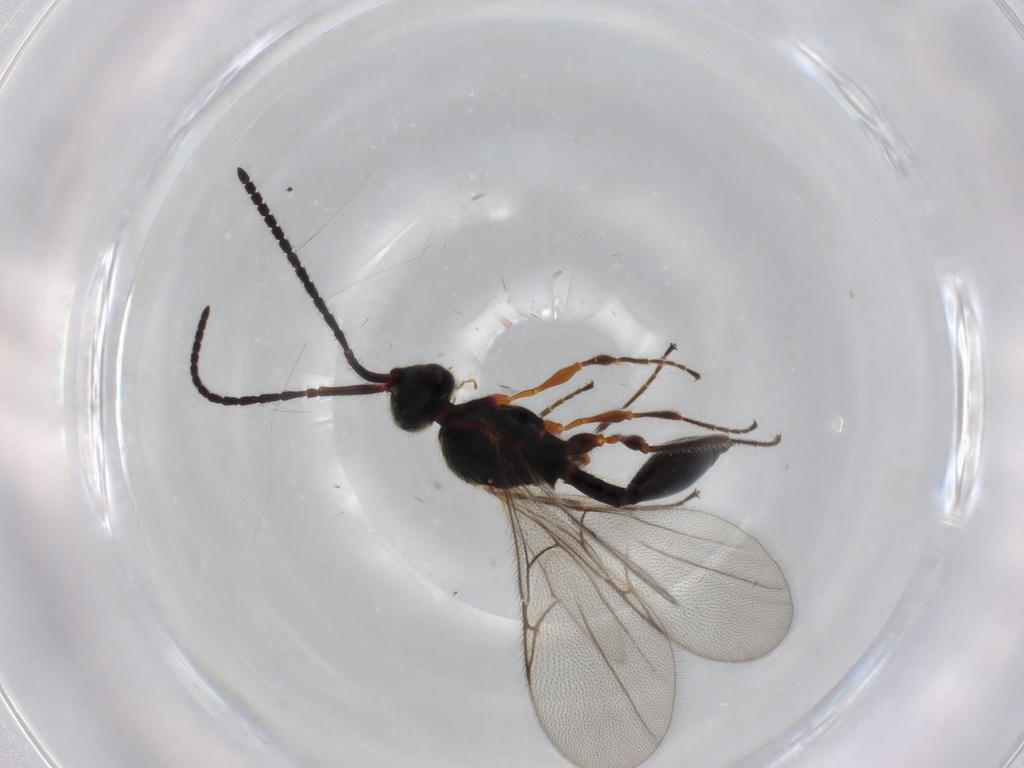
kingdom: Animalia
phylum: Arthropoda
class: Insecta
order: Hymenoptera
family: Diapriidae
